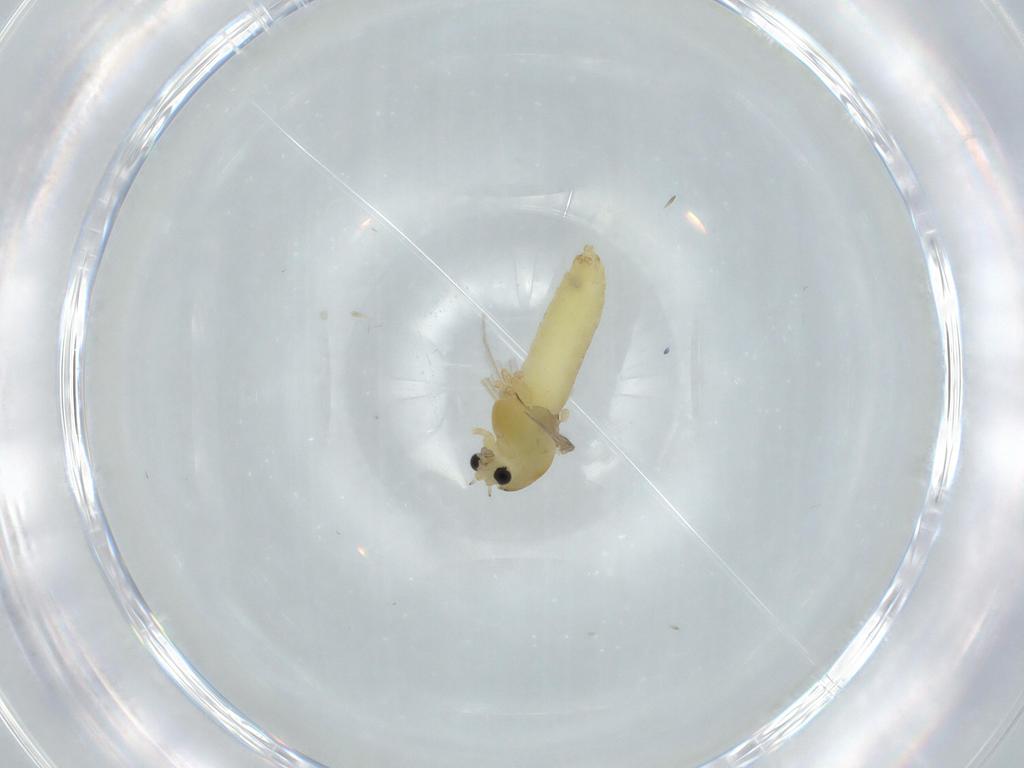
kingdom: Animalia
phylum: Arthropoda
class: Insecta
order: Diptera
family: Chironomidae
